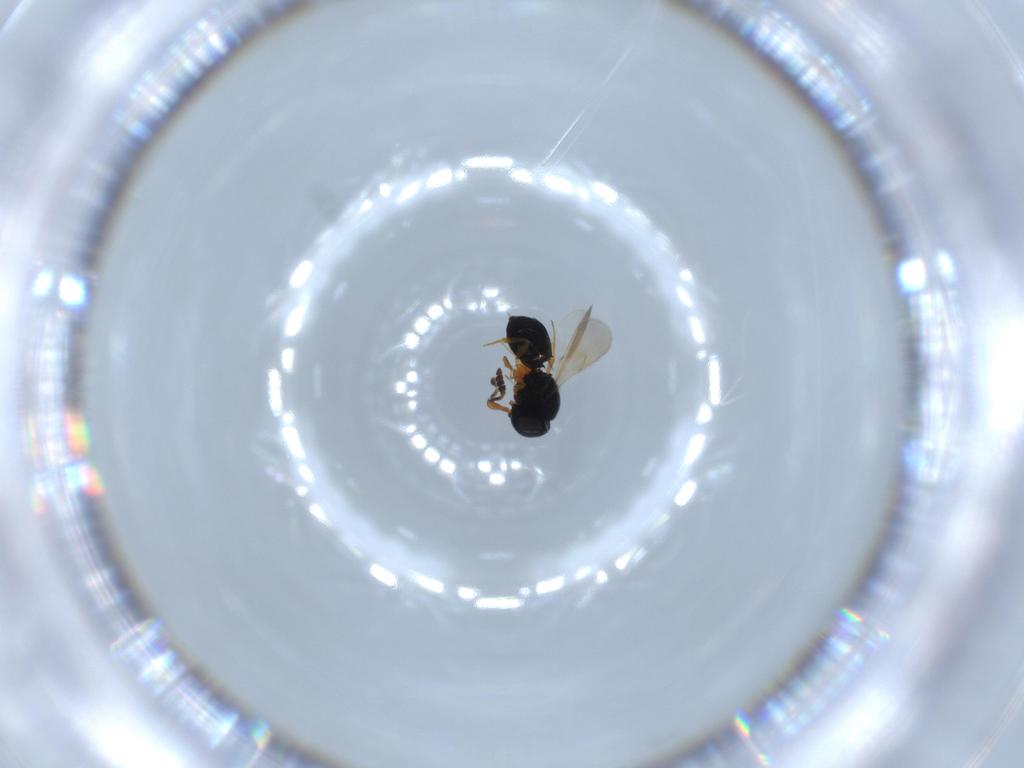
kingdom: Animalia
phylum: Arthropoda
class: Insecta
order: Hymenoptera
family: Scelionidae
